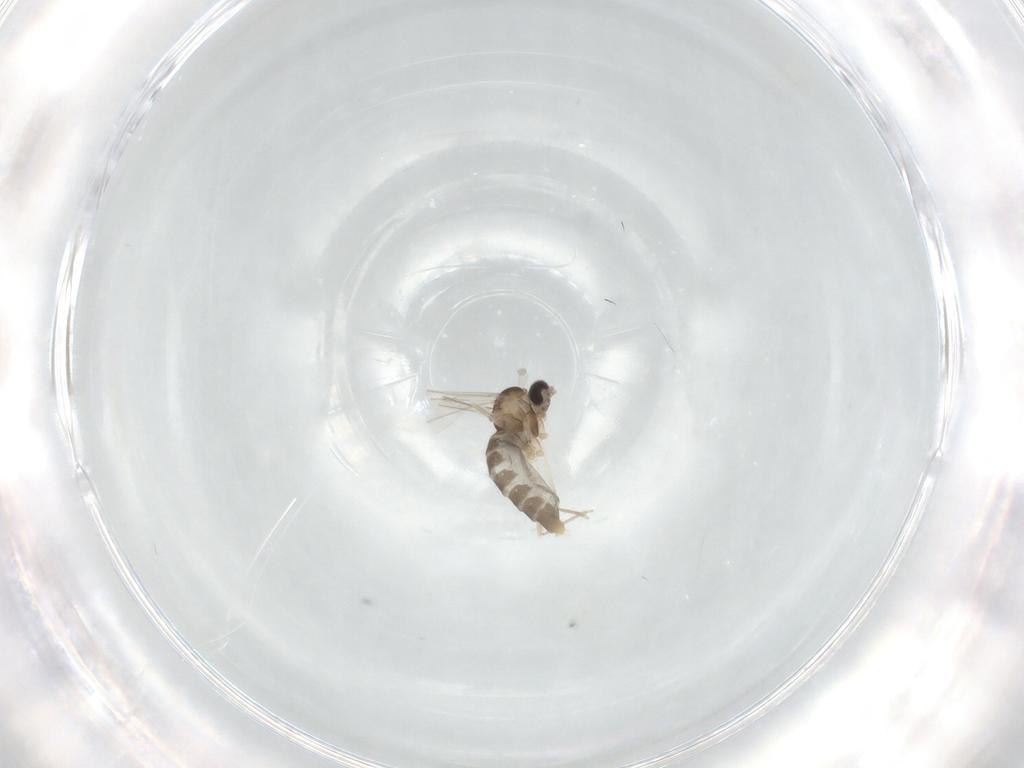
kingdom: Animalia
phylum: Arthropoda
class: Insecta
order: Diptera
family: Cecidomyiidae
